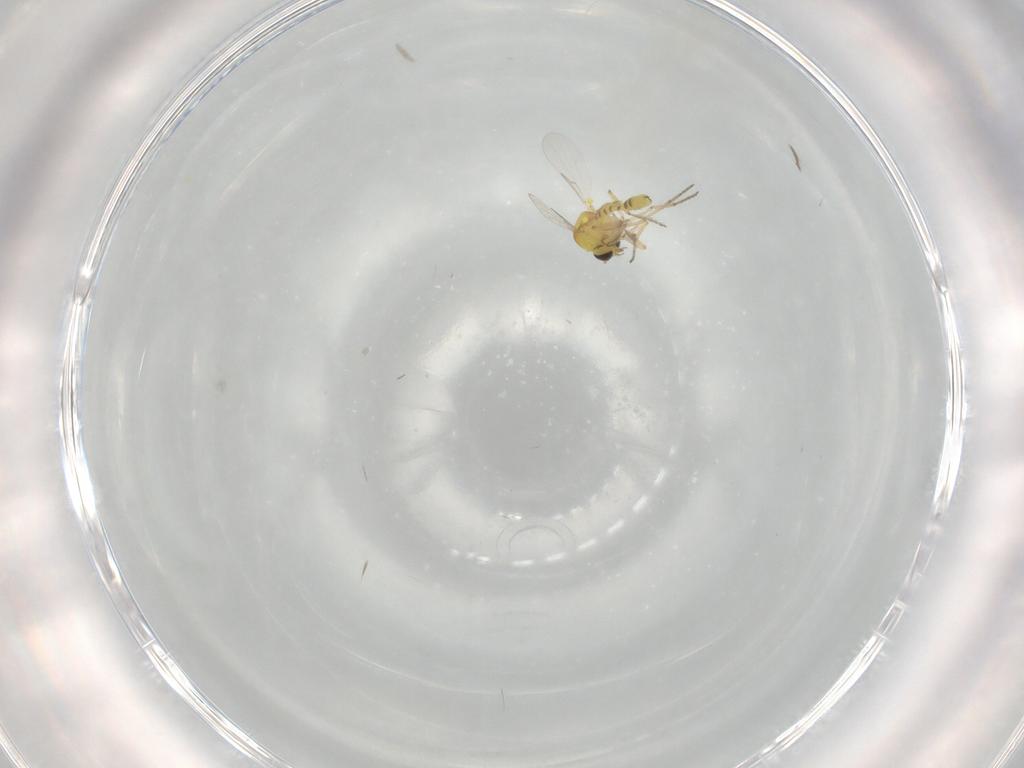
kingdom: Animalia
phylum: Arthropoda
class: Insecta
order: Diptera
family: Ceratopogonidae
